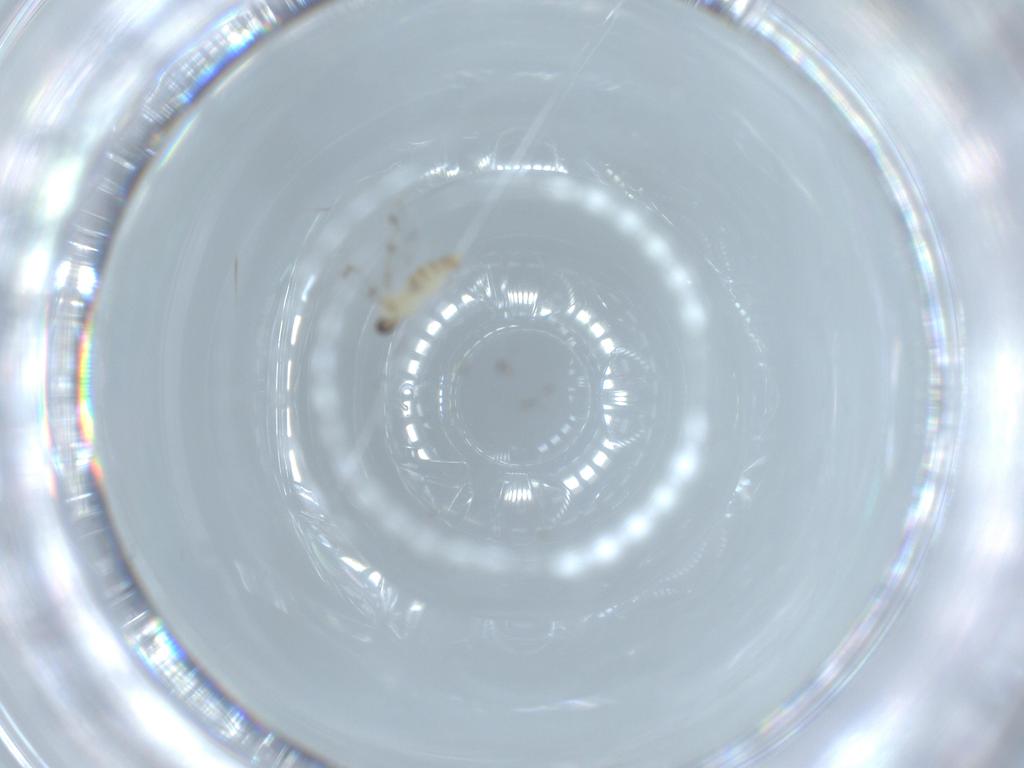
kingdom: Animalia
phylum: Arthropoda
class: Insecta
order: Diptera
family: Cecidomyiidae
